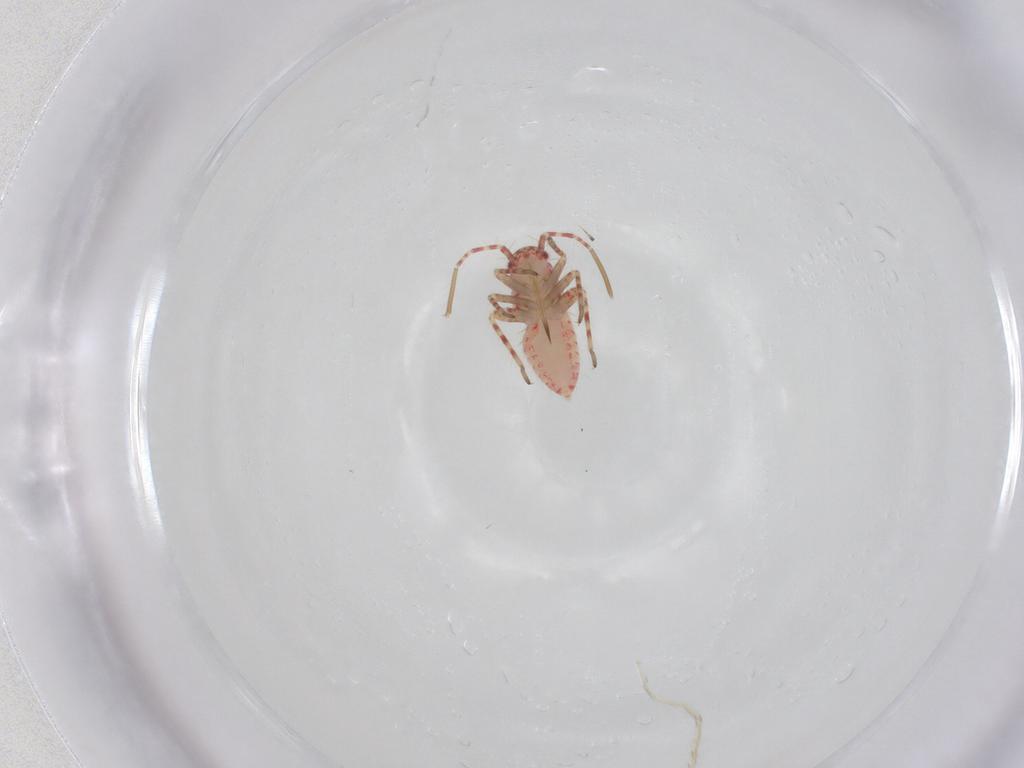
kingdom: Animalia
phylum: Arthropoda
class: Insecta
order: Hemiptera
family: Miridae
